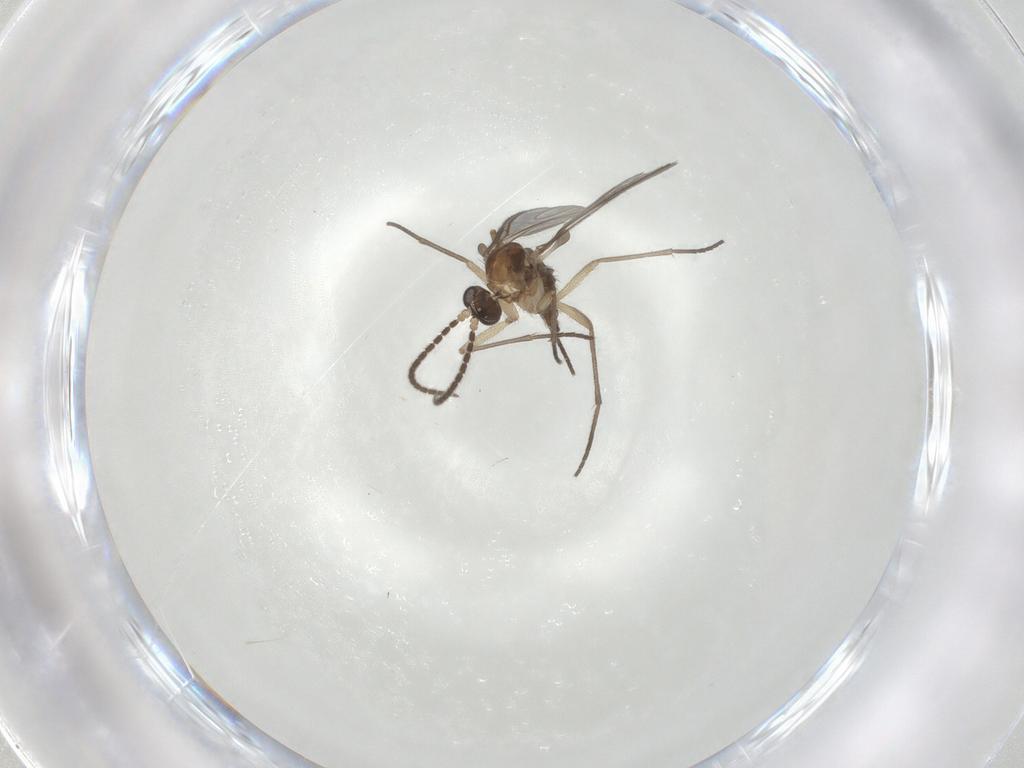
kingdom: Animalia
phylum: Arthropoda
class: Insecta
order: Diptera
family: Sciaridae
